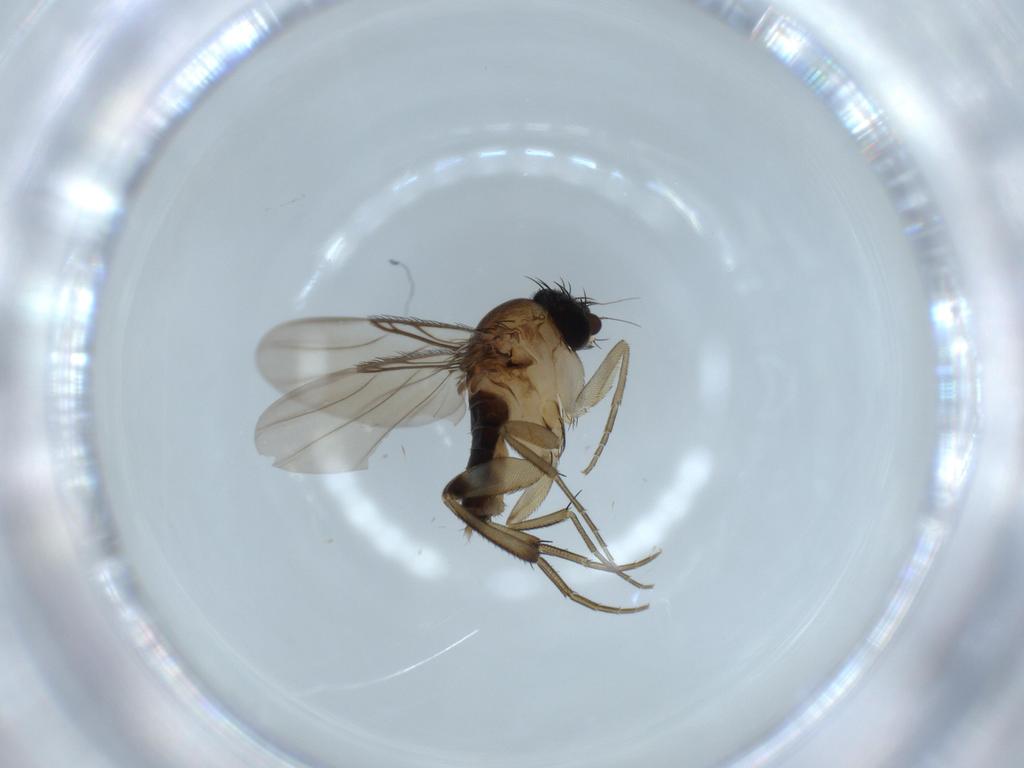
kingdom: Animalia
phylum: Arthropoda
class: Insecta
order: Diptera
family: Phoridae
